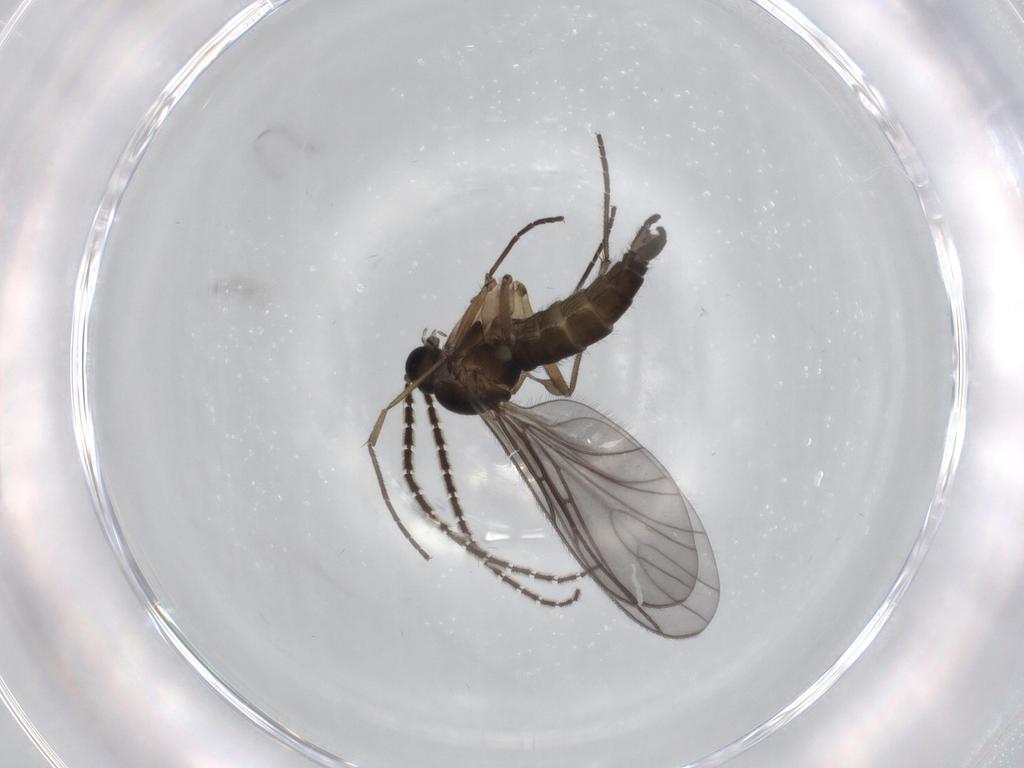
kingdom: Animalia
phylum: Arthropoda
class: Insecta
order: Diptera
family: Sciaridae
